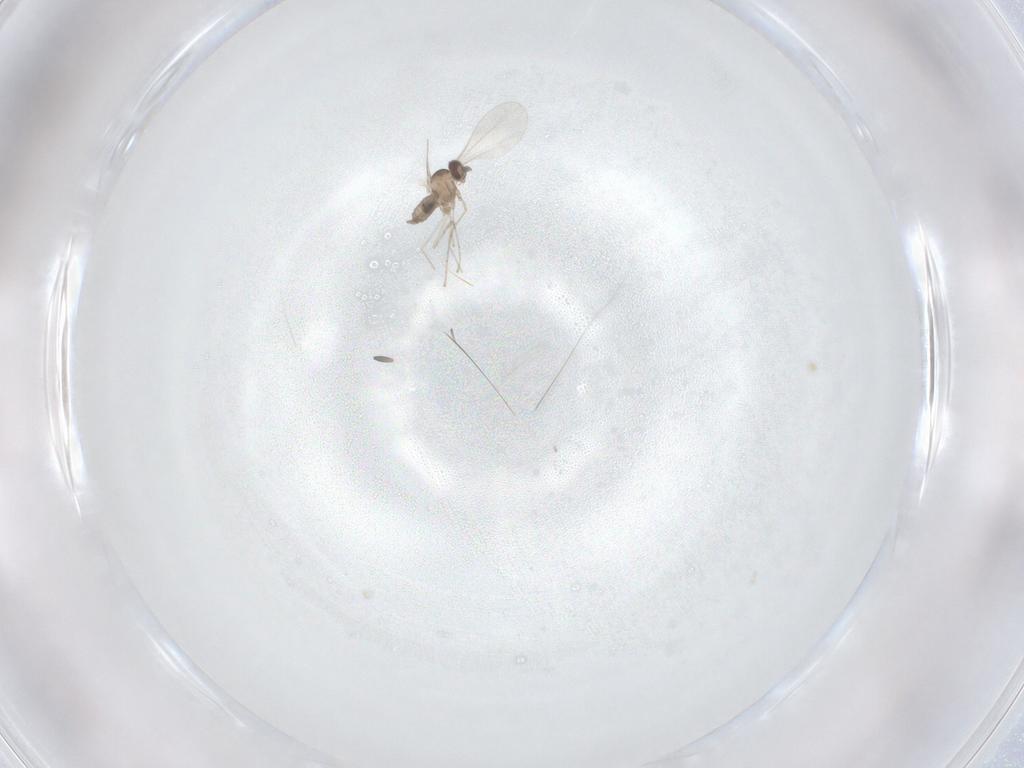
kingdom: Animalia
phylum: Arthropoda
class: Insecta
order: Diptera
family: Cecidomyiidae
